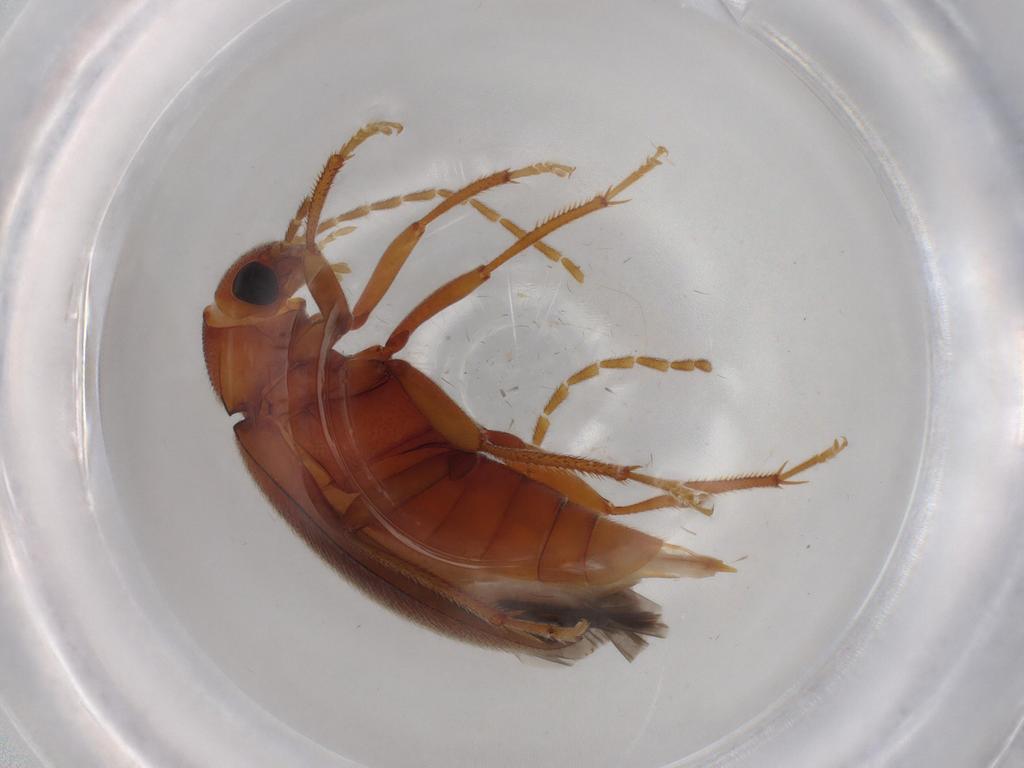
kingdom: Animalia
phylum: Arthropoda
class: Insecta
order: Coleoptera
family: Ptilodactylidae
